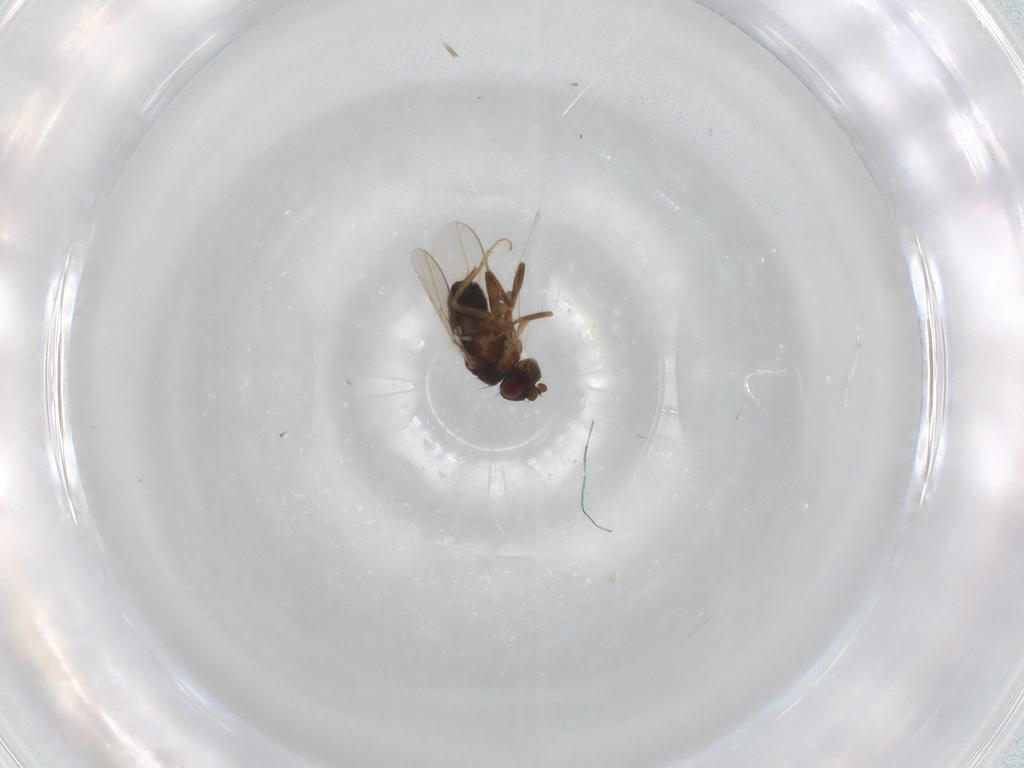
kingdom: Animalia
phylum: Arthropoda
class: Insecta
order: Diptera
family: Sphaeroceridae
